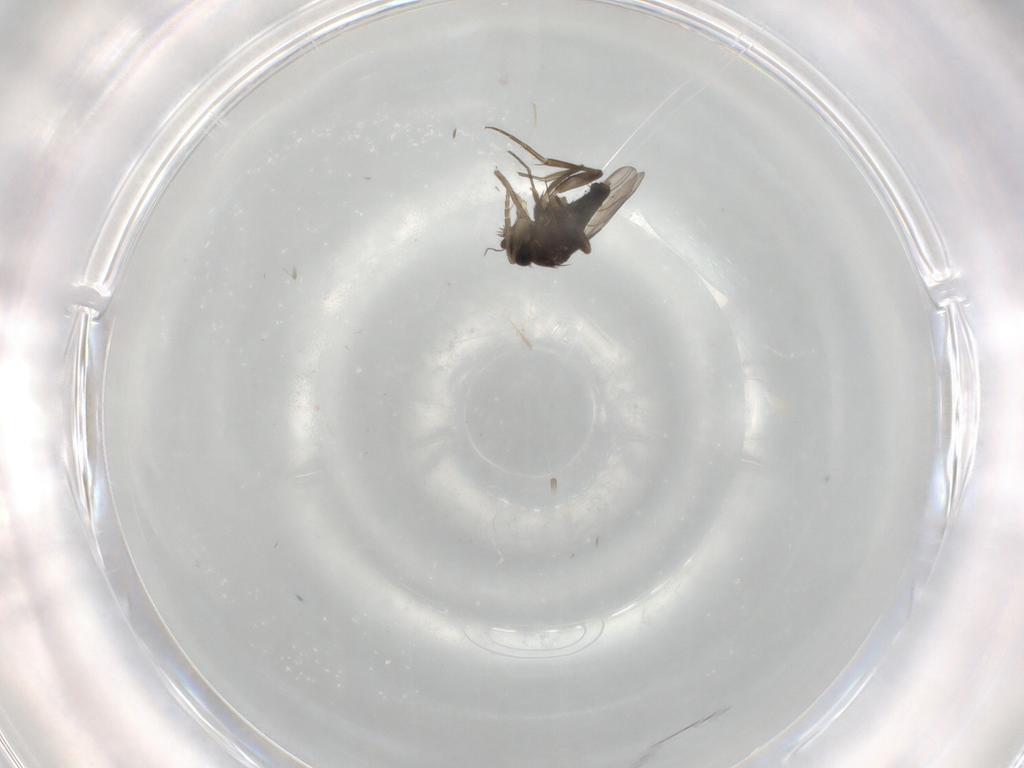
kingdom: Animalia
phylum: Arthropoda
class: Insecta
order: Diptera
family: Phoridae
